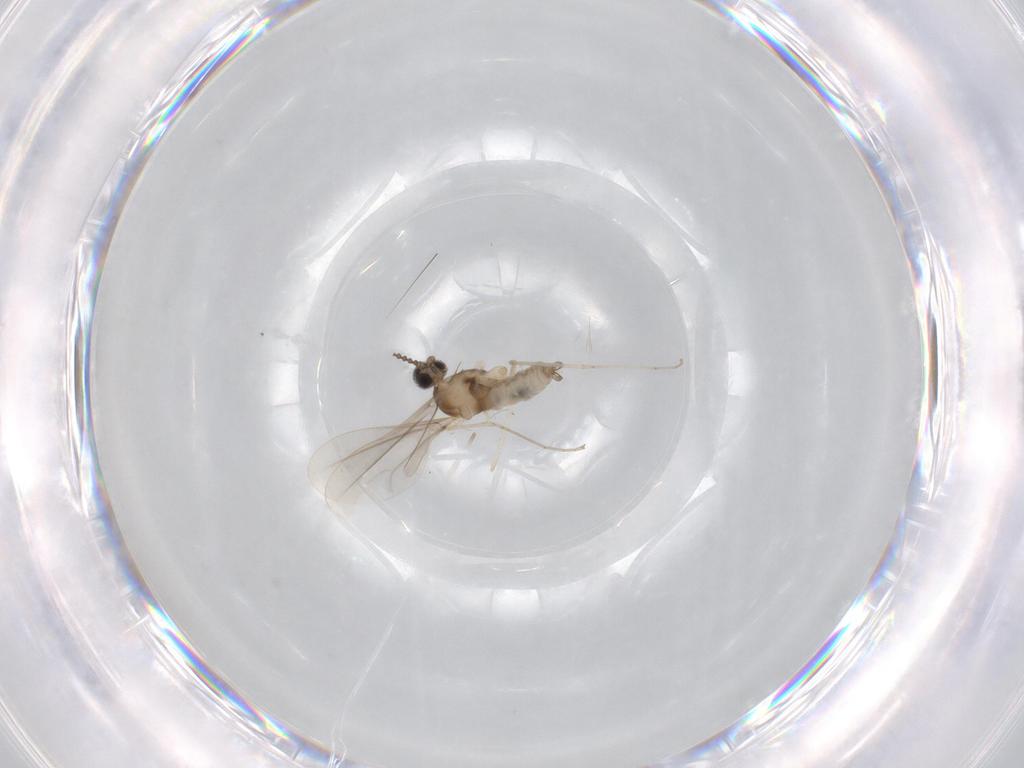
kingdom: Animalia
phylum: Arthropoda
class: Insecta
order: Diptera
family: Cecidomyiidae
